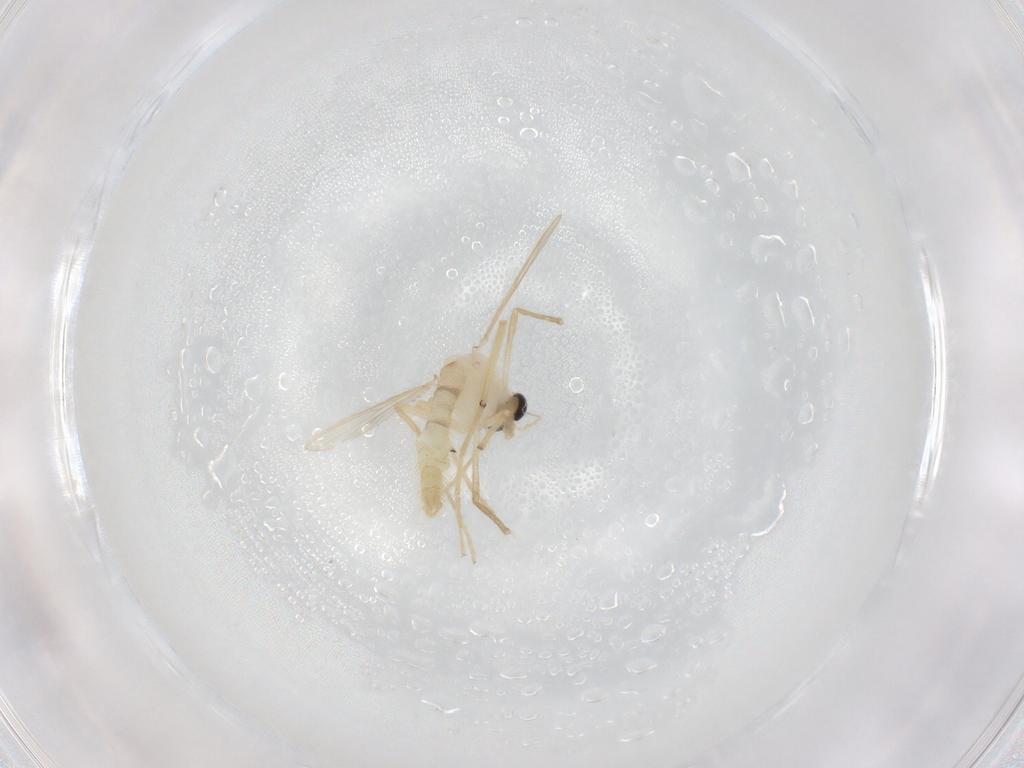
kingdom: Animalia
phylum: Arthropoda
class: Insecta
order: Diptera
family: Chironomidae
